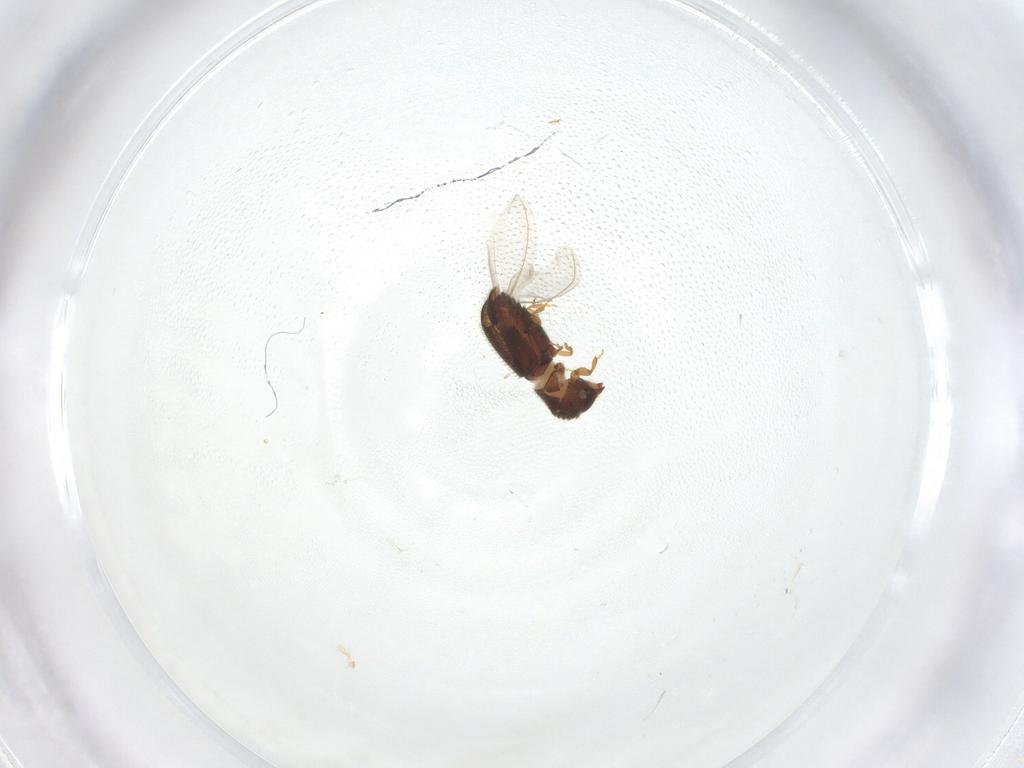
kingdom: Animalia
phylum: Arthropoda
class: Insecta
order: Coleoptera
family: Curculionidae
